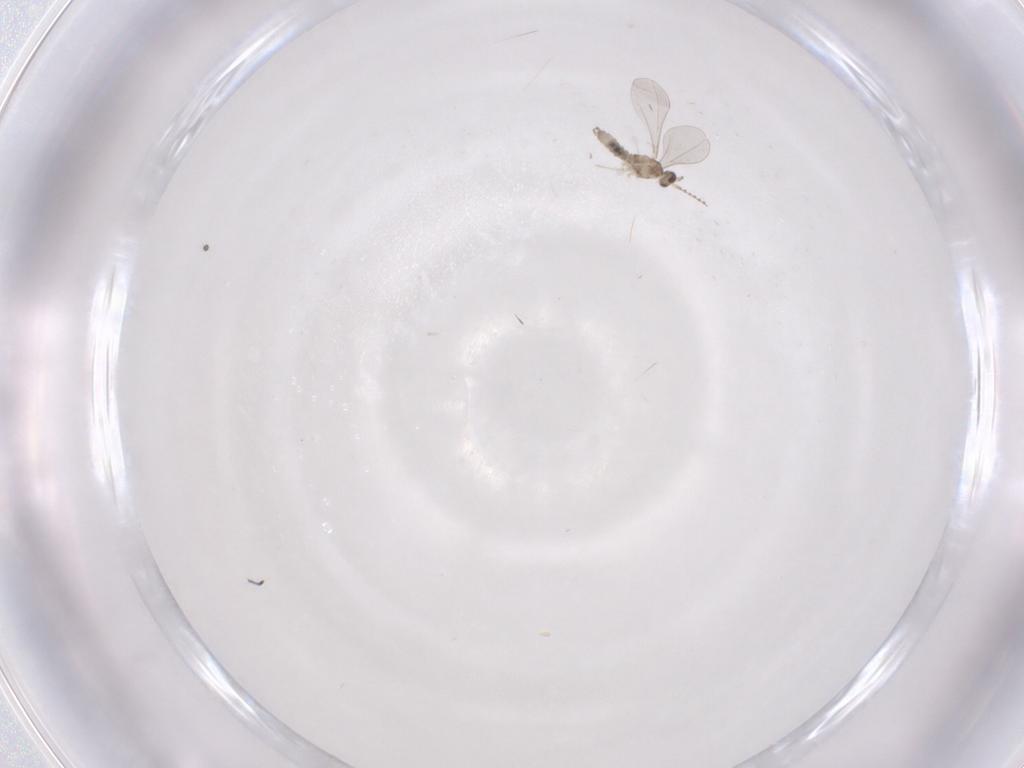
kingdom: Animalia
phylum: Arthropoda
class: Insecta
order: Diptera
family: Cecidomyiidae
